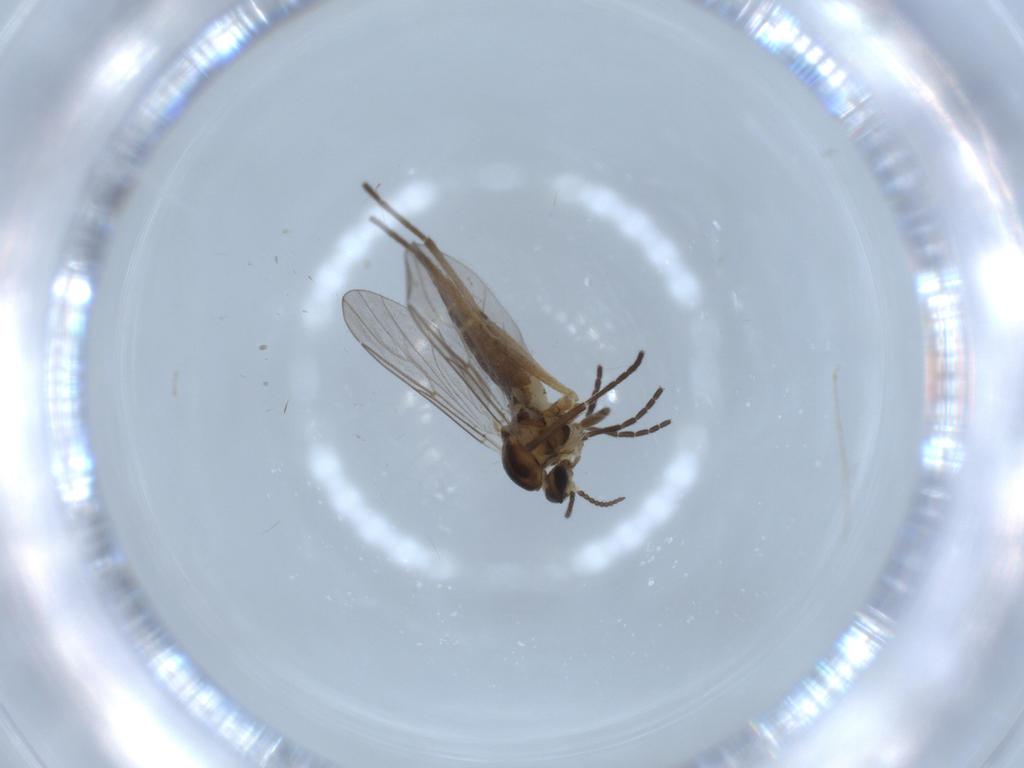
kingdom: Animalia
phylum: Arthropoda
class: Insecta
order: Diptera
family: Cecidomyiidae
